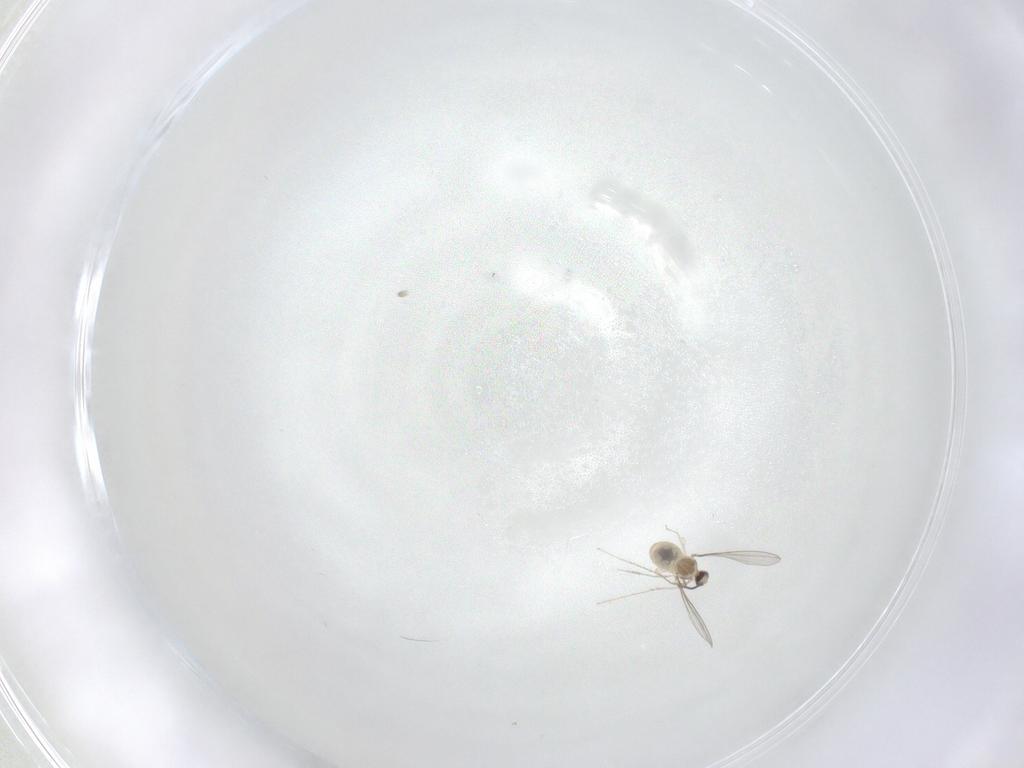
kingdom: Animalia
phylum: Arthropoda
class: Insecta
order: Diptera
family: Cecidomyiidae
